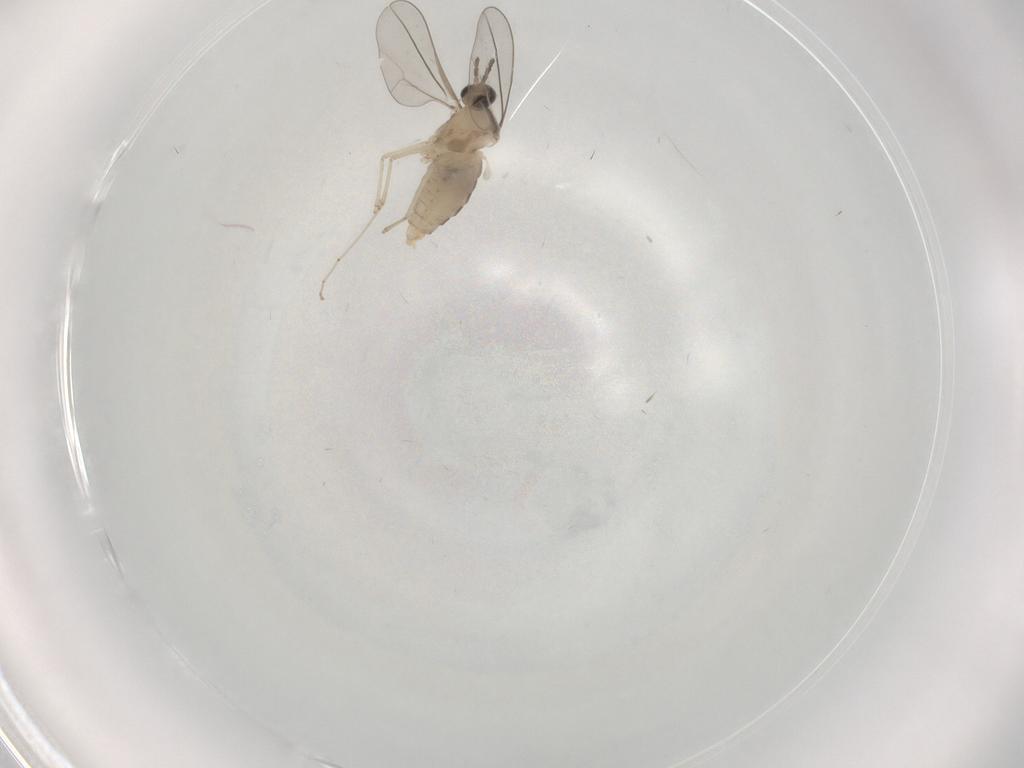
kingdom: Animalia
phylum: Arthropoda
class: Insecta
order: Diptera
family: Cecidomyiidae
